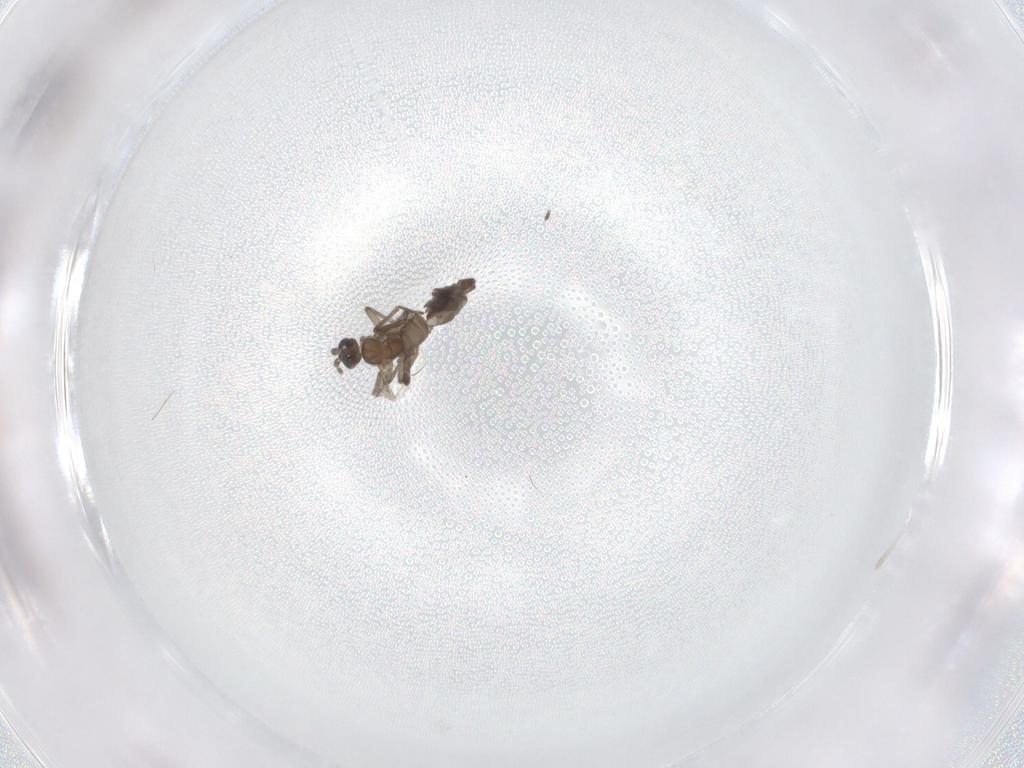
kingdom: Animalia
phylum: Arthropoda
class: Insecta
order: Diptera
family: Sciaridae
